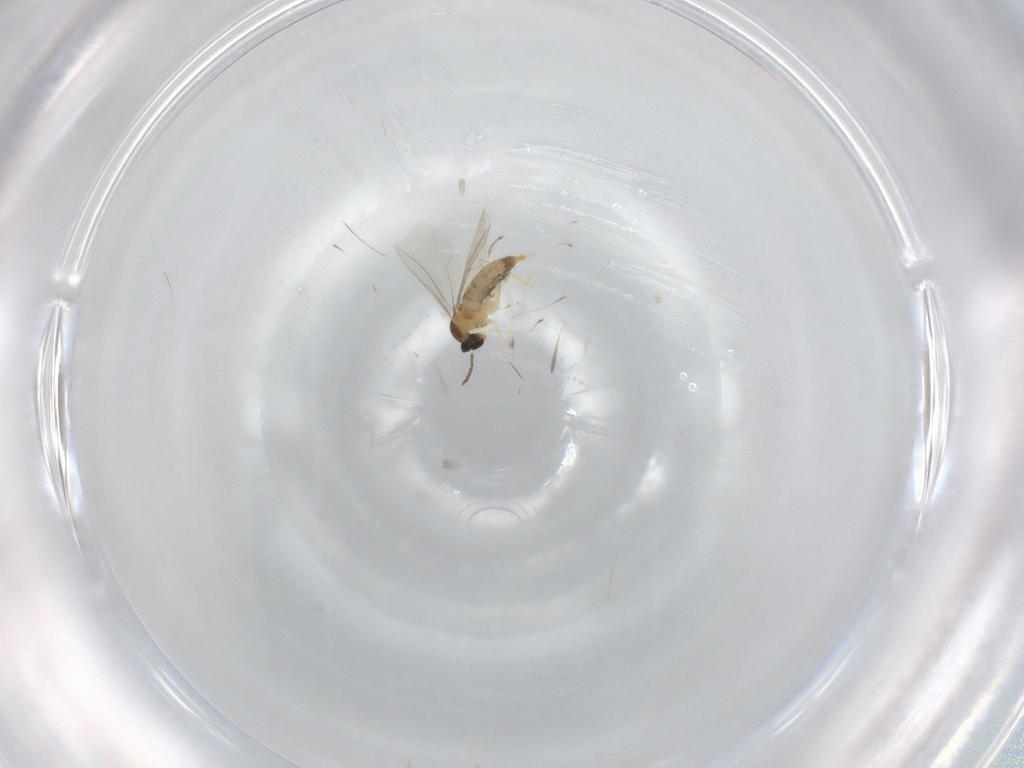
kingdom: Animalia
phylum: Arthropoda
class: Insecta
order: Diptera
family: Cecidomyiidae
